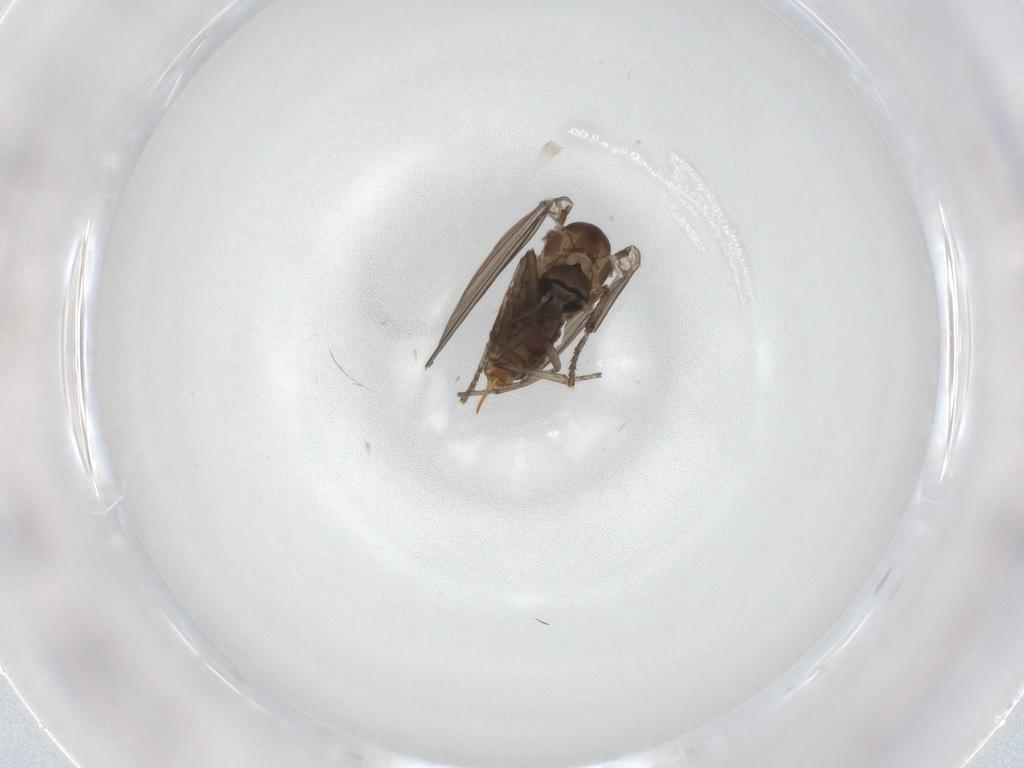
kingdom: Animalia
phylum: Arthropoda
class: Insecta
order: Diptera
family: Psychodidae
